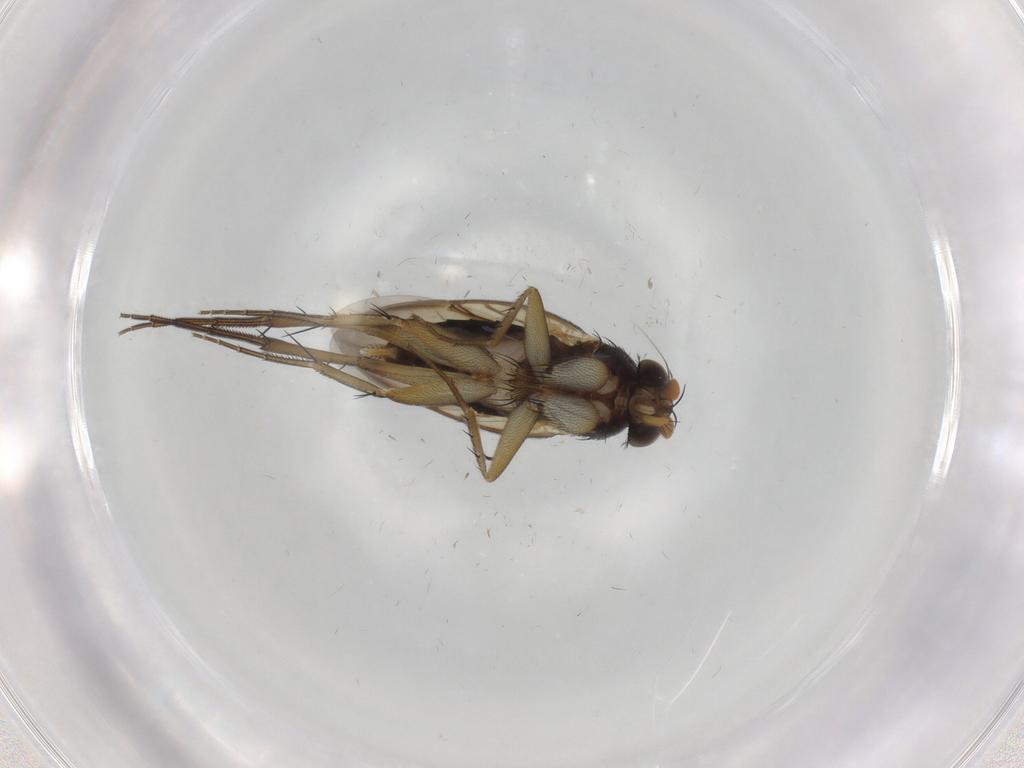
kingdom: Animalia
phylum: Arthropoda
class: Insecta
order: Diptera
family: Phoridae
